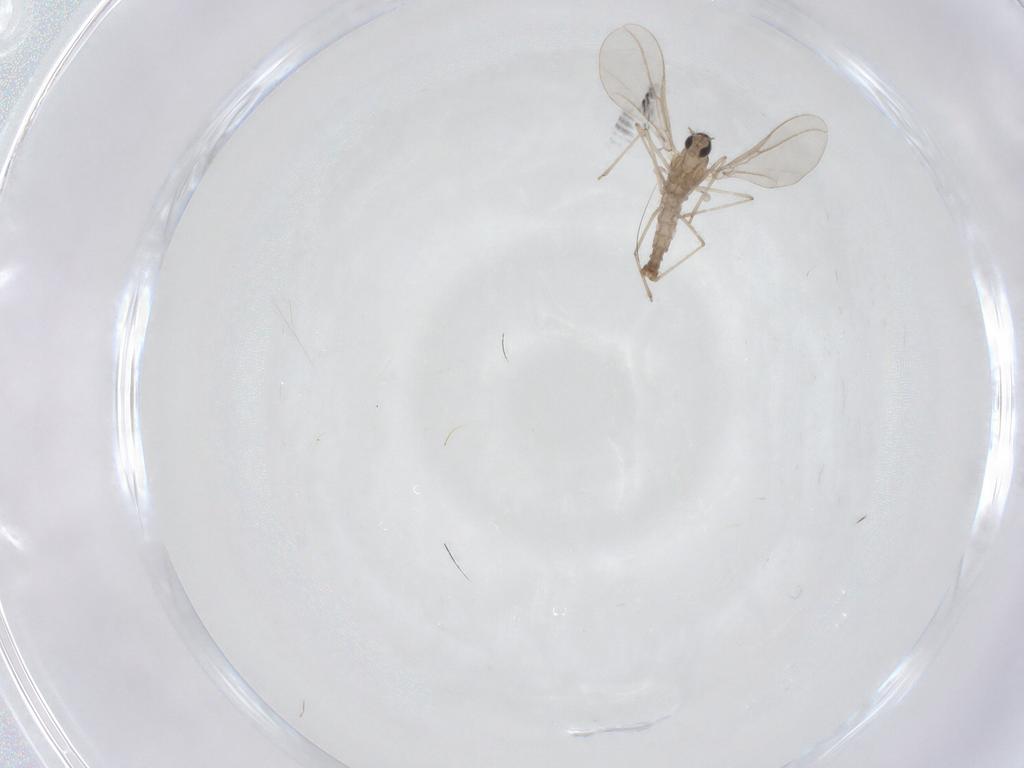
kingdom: Animalia
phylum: Arthropoda
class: Insecta
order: Diptera
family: Cecidomyiidae
